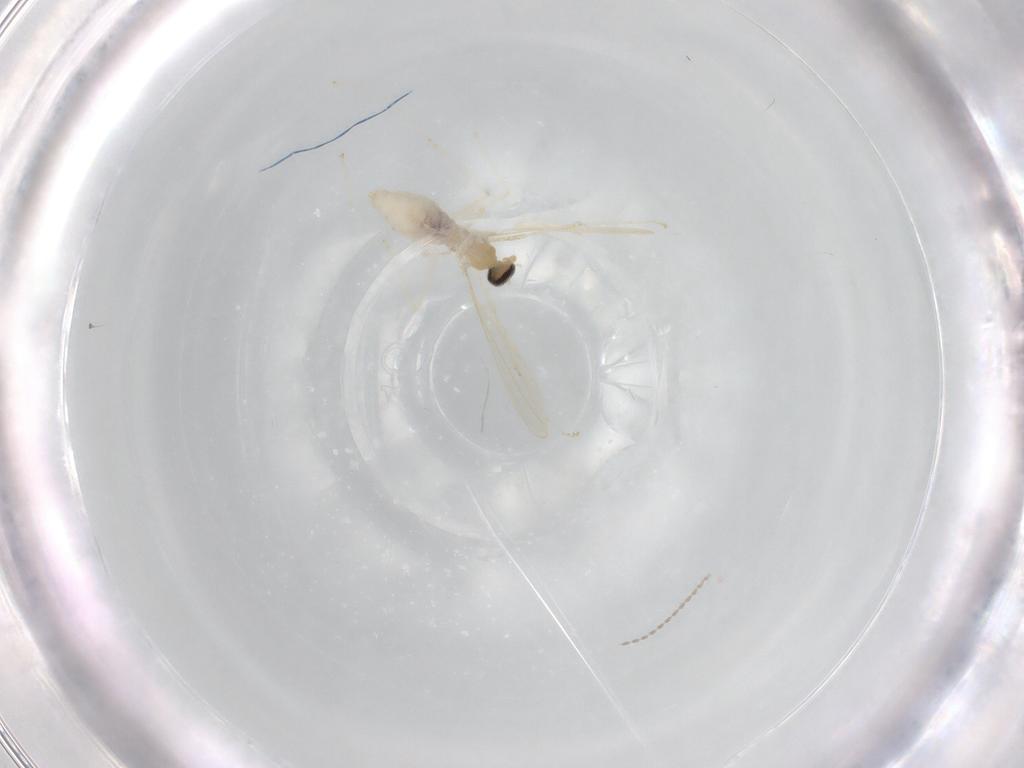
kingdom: Animalia
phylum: Arthropoda
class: Insecta
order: Diptera
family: Cecidomyiidae
